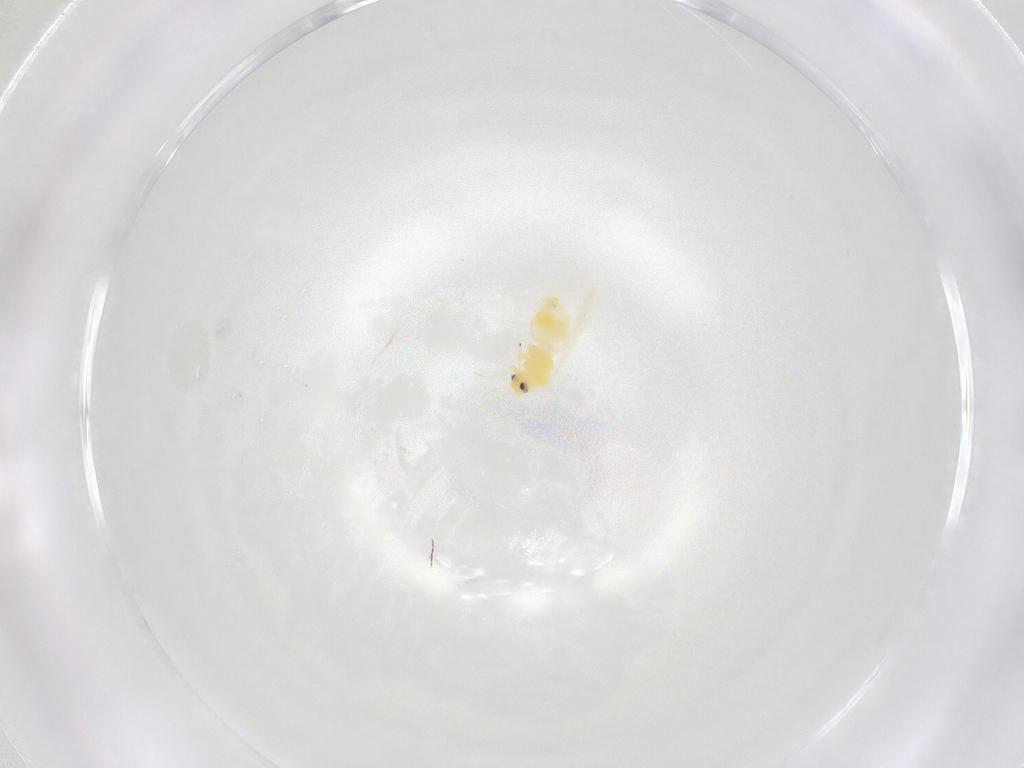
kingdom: Animalia
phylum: Arthropoda
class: Insecta
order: Hemiptera
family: Aleyrodidae
